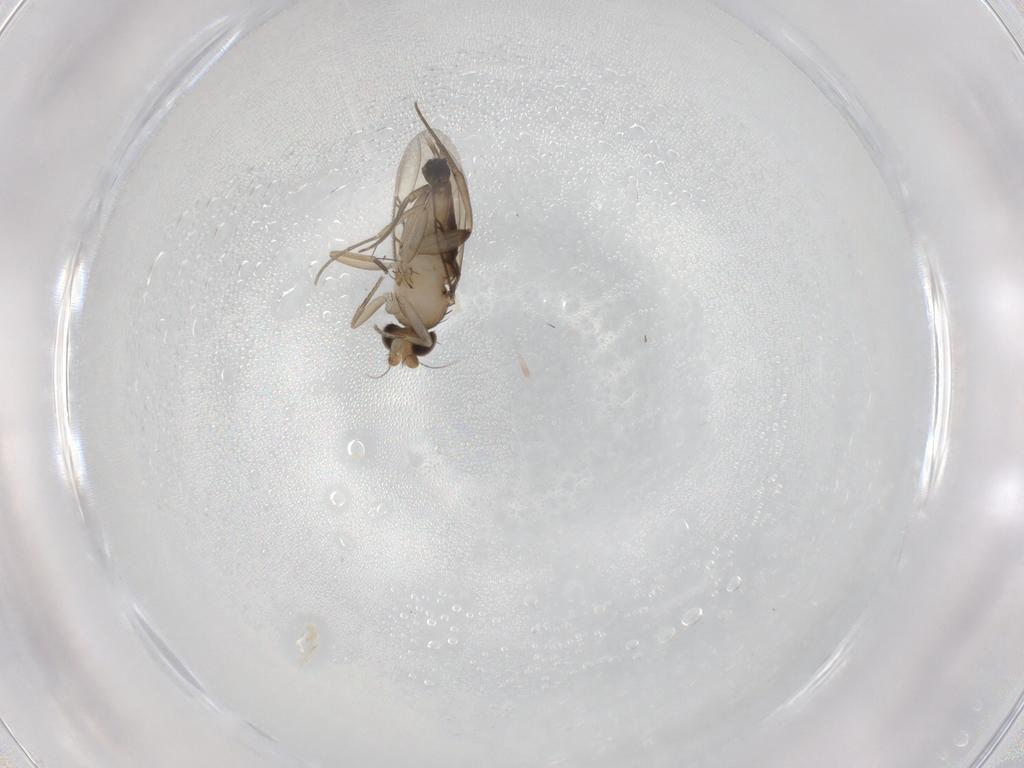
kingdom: Animalia
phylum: Arthropoda
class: Insecta
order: Diptera
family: Phoridae
